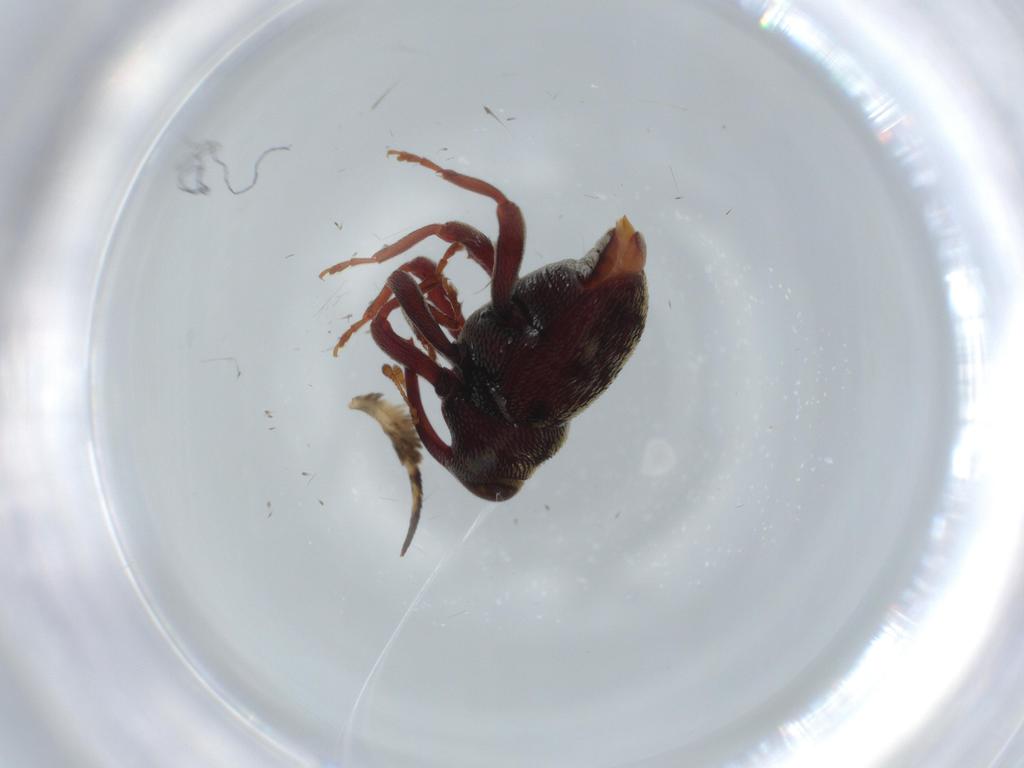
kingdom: Animalia
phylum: Arthropoda
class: Insecta
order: Coleoptera
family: Curculionidae
